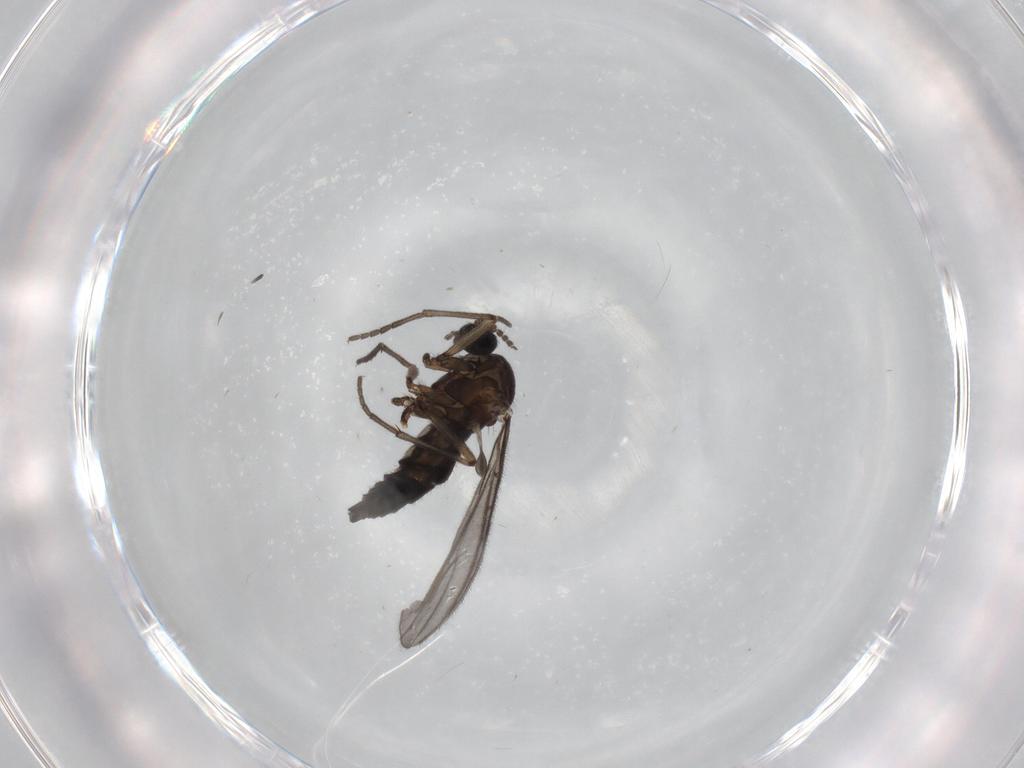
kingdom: Animalia
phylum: Arthropoda
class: Insecta
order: Diptera
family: Sciaridae
